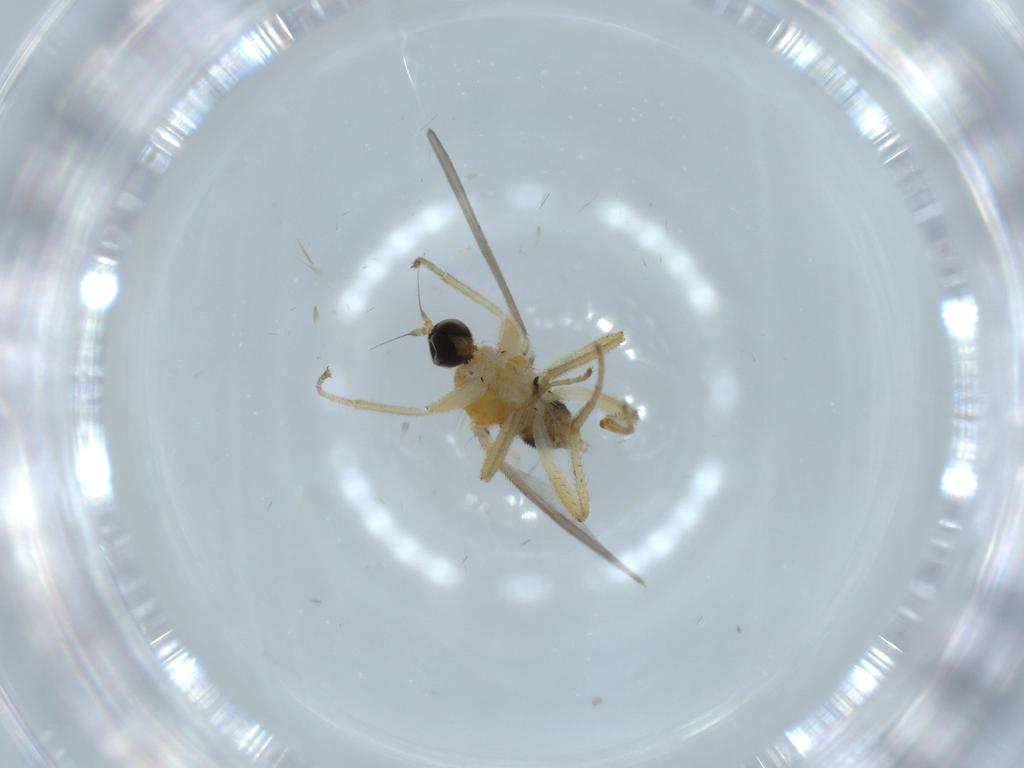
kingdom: Animalia
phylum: Arthropoda
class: Insecta
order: Diptera
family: Hybotidae
